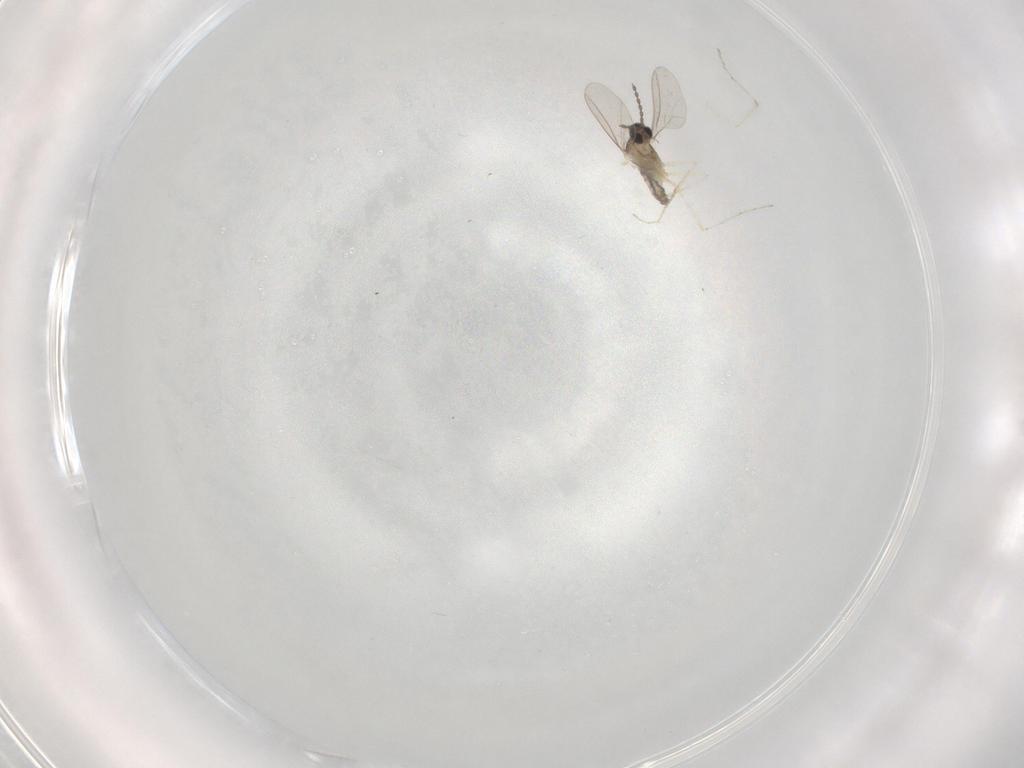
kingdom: Animalia
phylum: Arthropoda
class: Insecta
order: Diptera
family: Cecidomyiidae
